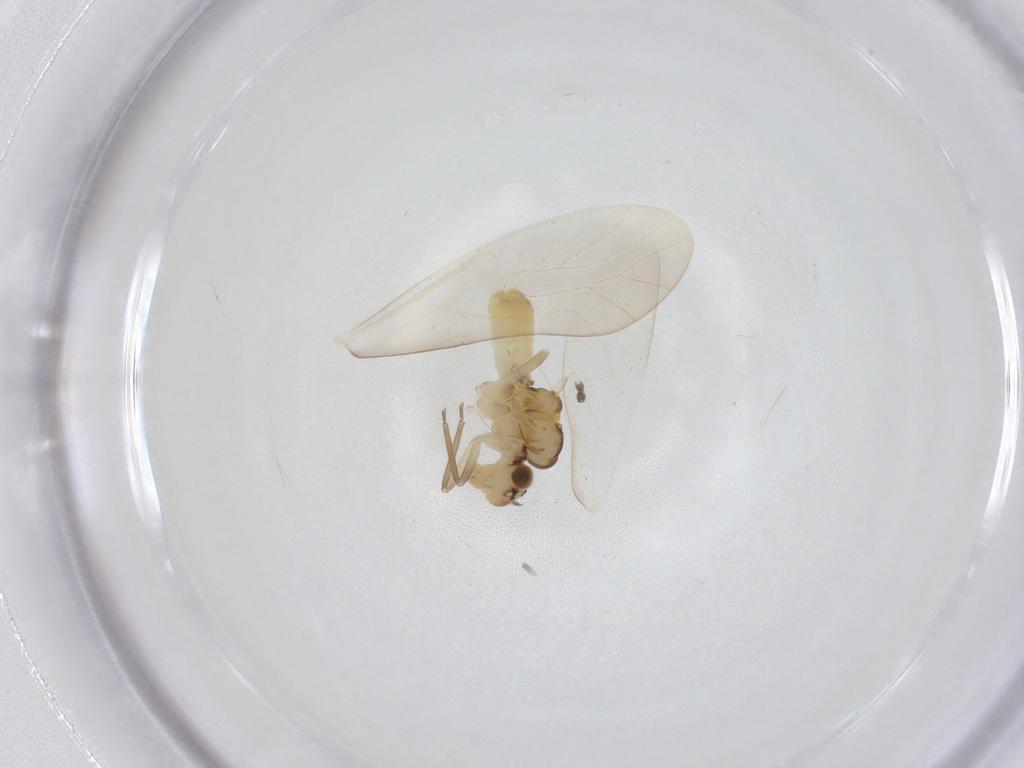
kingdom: Animalia
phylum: Arthropoda
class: Insecta
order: Psocodea
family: Caeciliusidae
